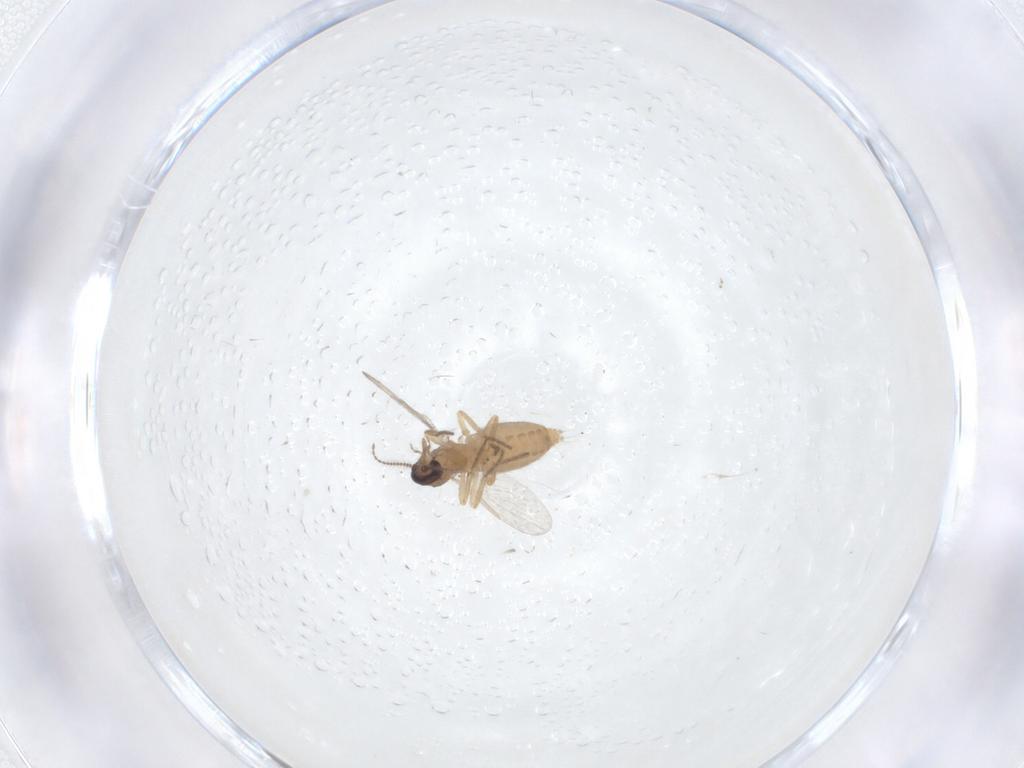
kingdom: Animalia
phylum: Arthropoda
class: Insecta
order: Diptera
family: Ceratopogonidae
